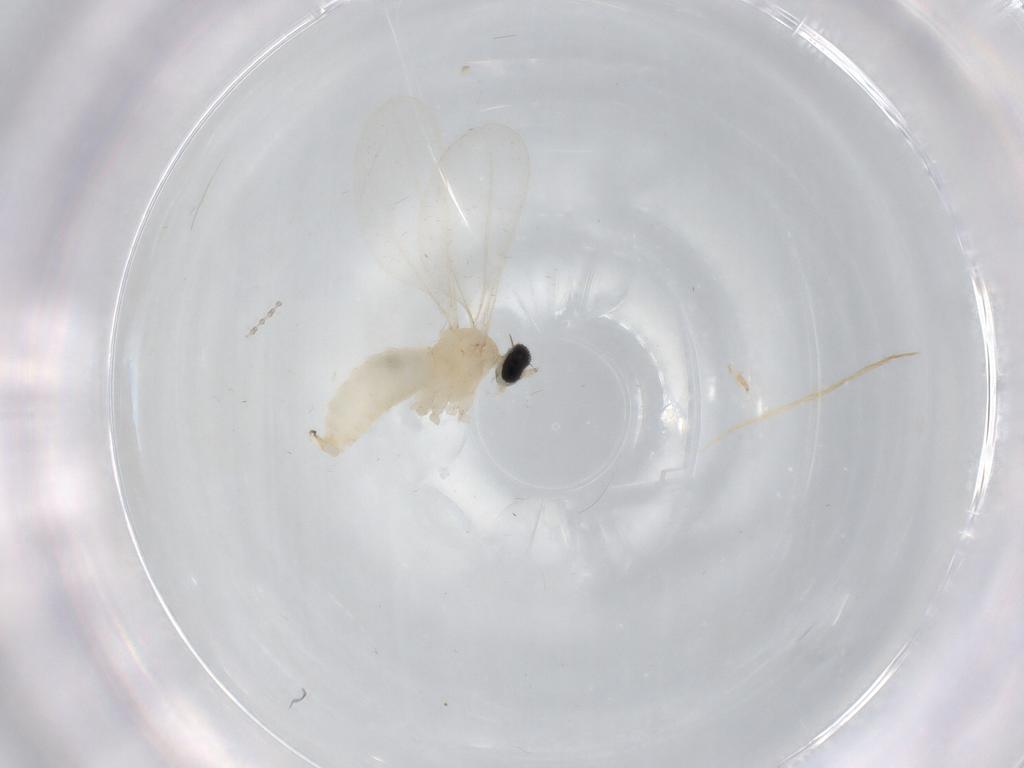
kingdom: Animalia
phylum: Arthropoda
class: Insecta
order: Diptera
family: Cecidomyiidae
